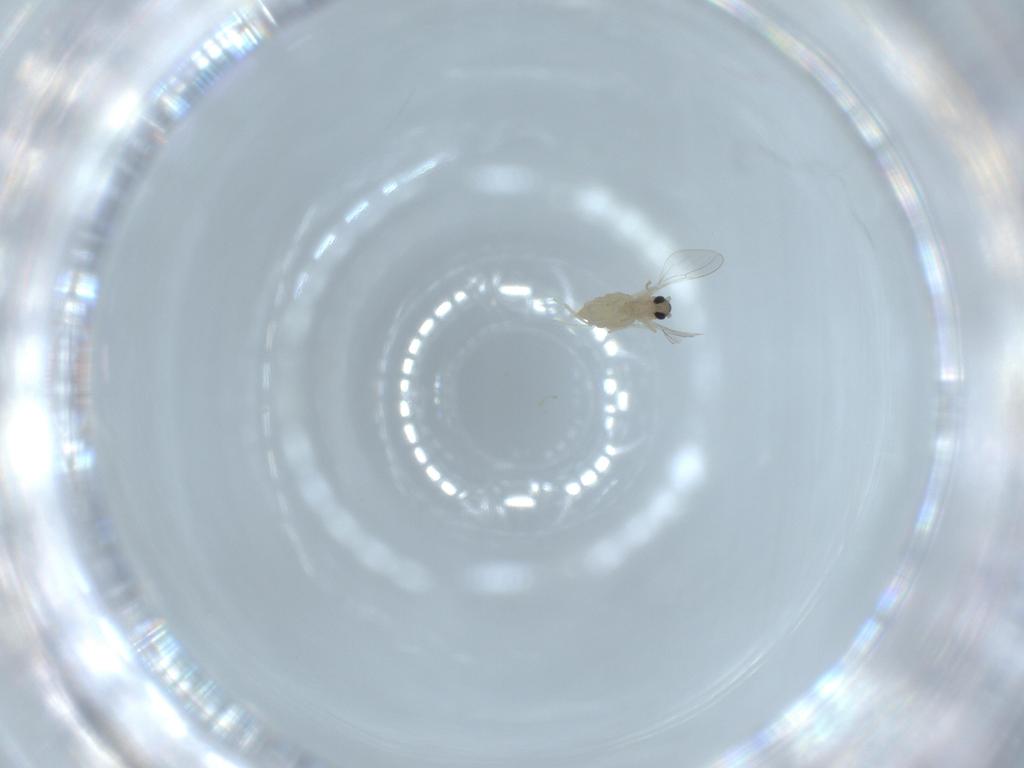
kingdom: Animalia
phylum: Arthropoda
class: Insecta
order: Diptera
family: Cecidomyiidae
